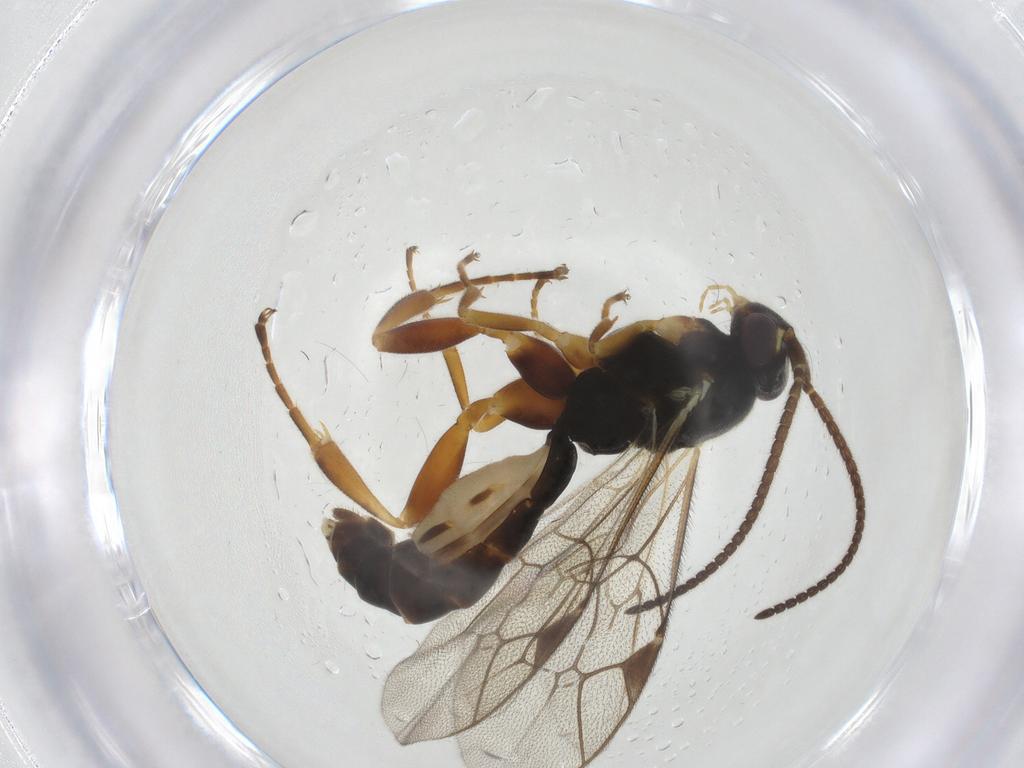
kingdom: Animalia
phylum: Arthropoda
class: Insecta
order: Hymenoptera
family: Ichneumonidae
